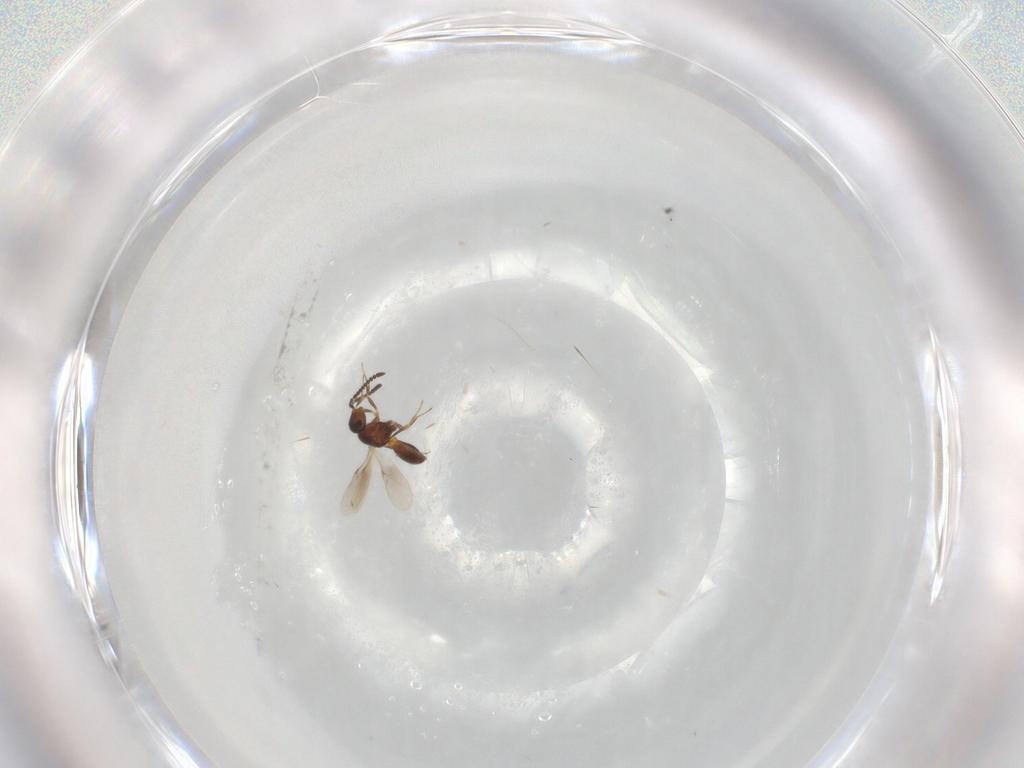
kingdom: Animalia
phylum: Arthropoda
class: Insecta
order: Hymenoptera
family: Scelionidae
